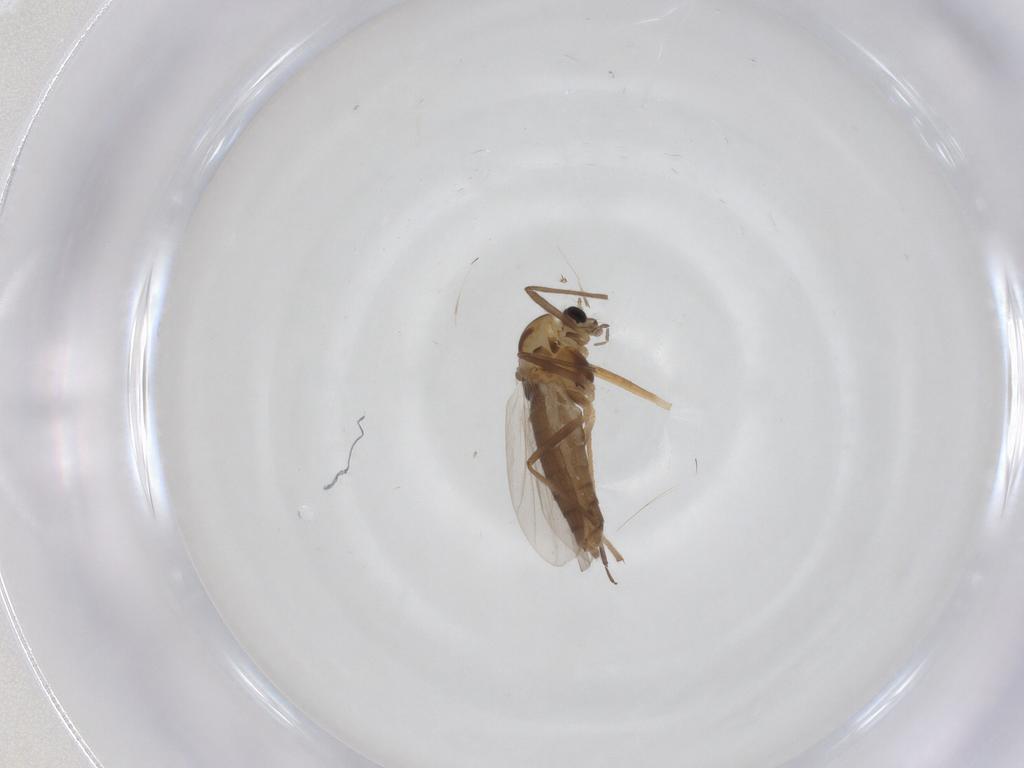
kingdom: Animalia
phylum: Arthropoda
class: Insecta
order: Diptera
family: Chironomidae
